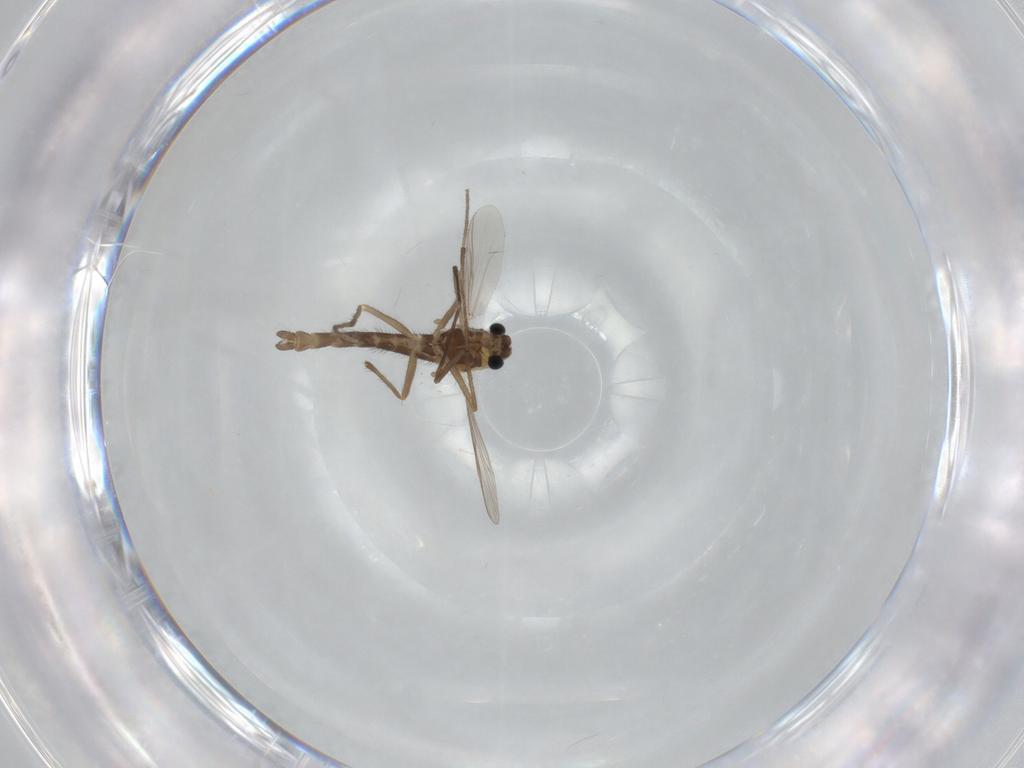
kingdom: Animalia
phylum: Arthropoda
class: Insecta
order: Diptera
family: Chironomidae
